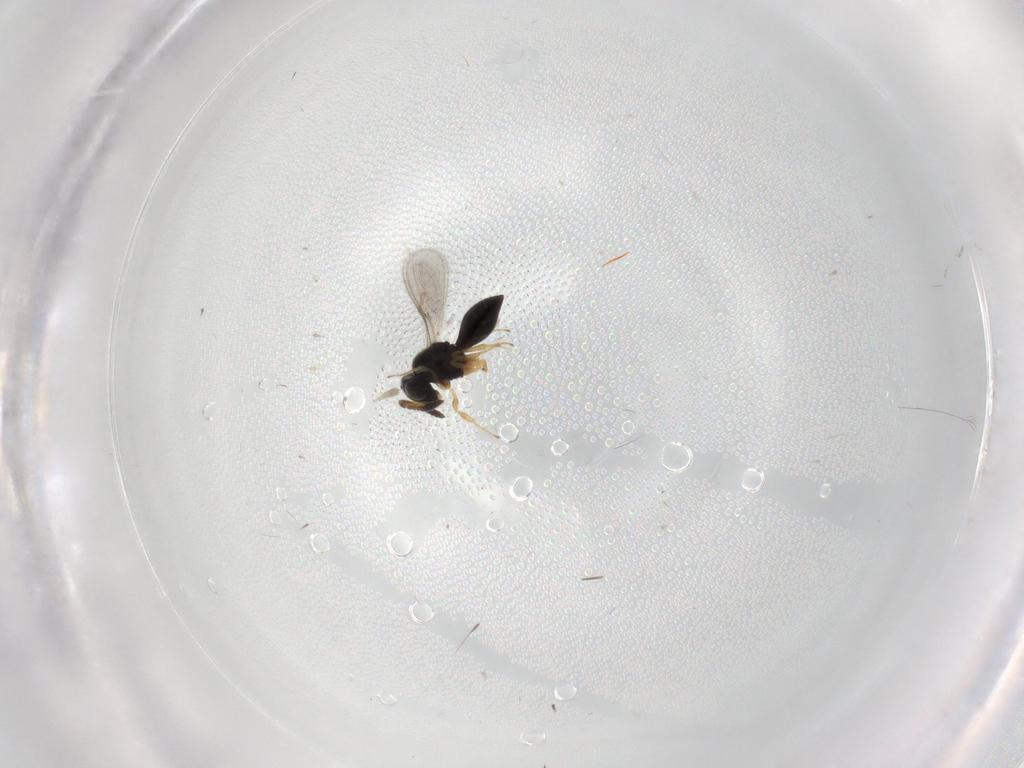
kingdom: Animalia
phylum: Arthropoda
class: Insecta
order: Hymenoptera
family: Scelionidae
